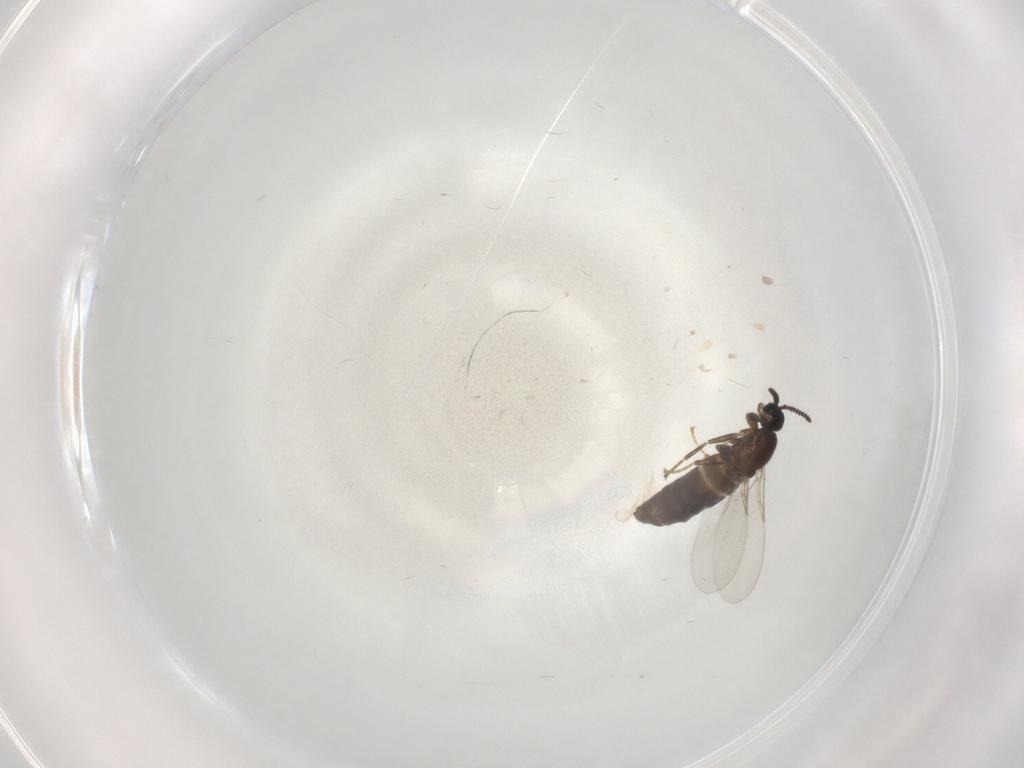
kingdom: Animalia
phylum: Arthropoda
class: Insecta
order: Diptera
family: Scatopsidae
